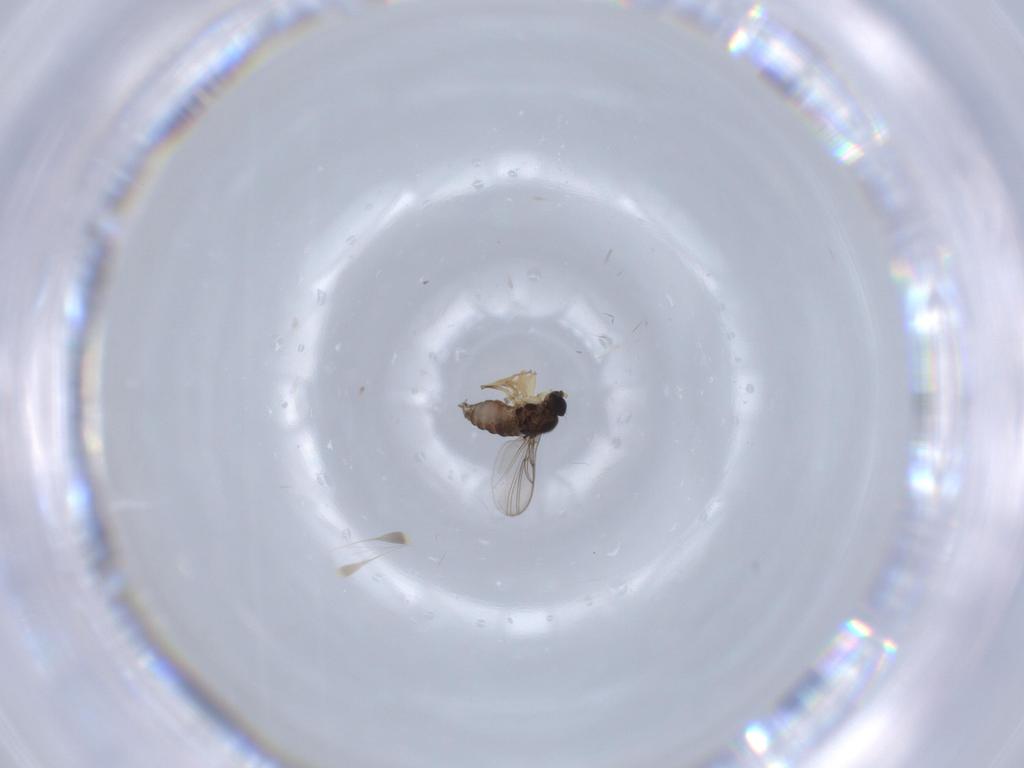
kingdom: Animalia
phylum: Arthropoda
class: Insecta
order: Diptera
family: Hybotidae
